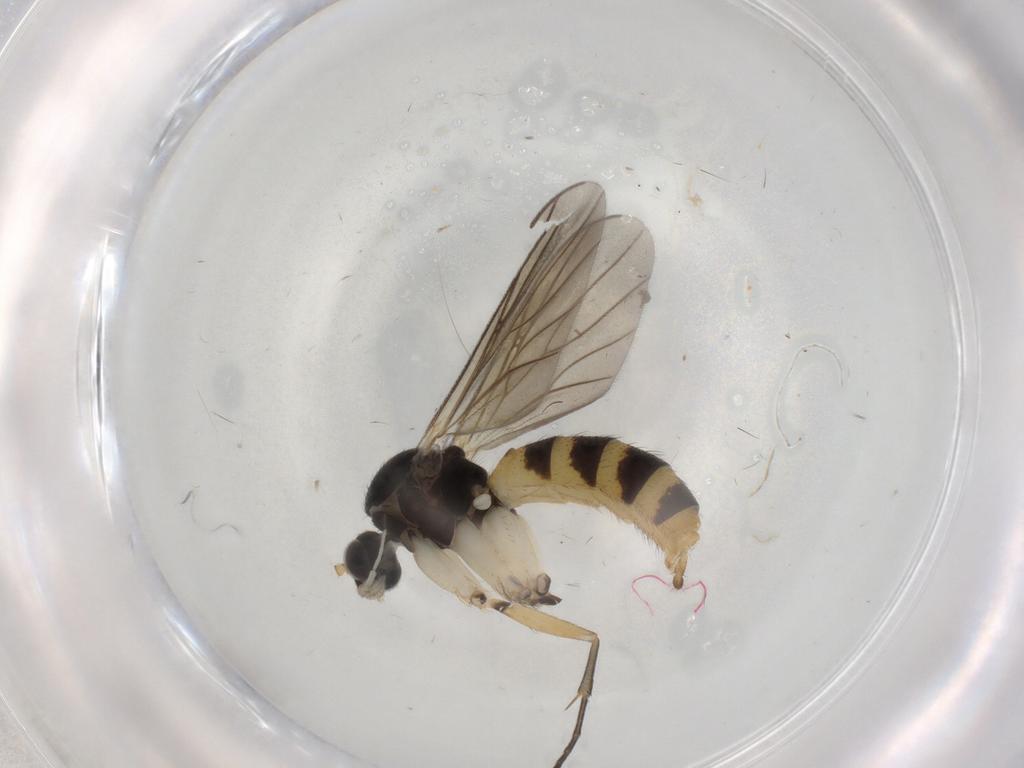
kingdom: Animalia
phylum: Arthropoda
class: Insecta
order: Diptera
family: Mycetophilidae
